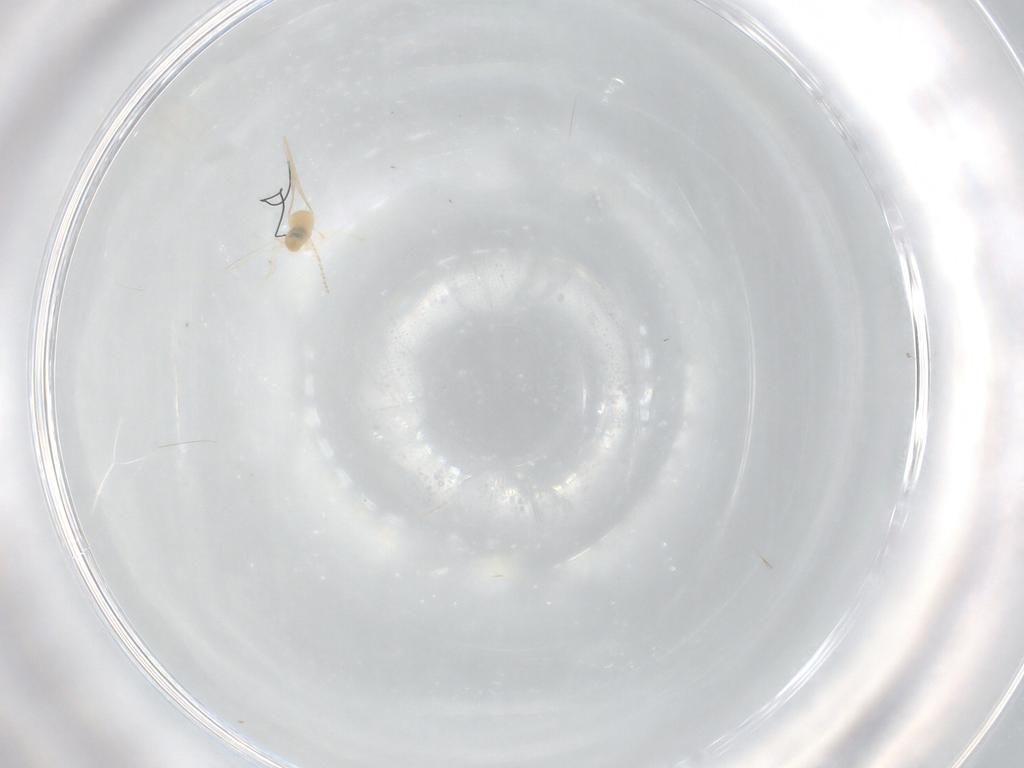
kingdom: Animalia
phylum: Arthropoda
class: Insecta
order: Diptera
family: Cecidomyiidae
